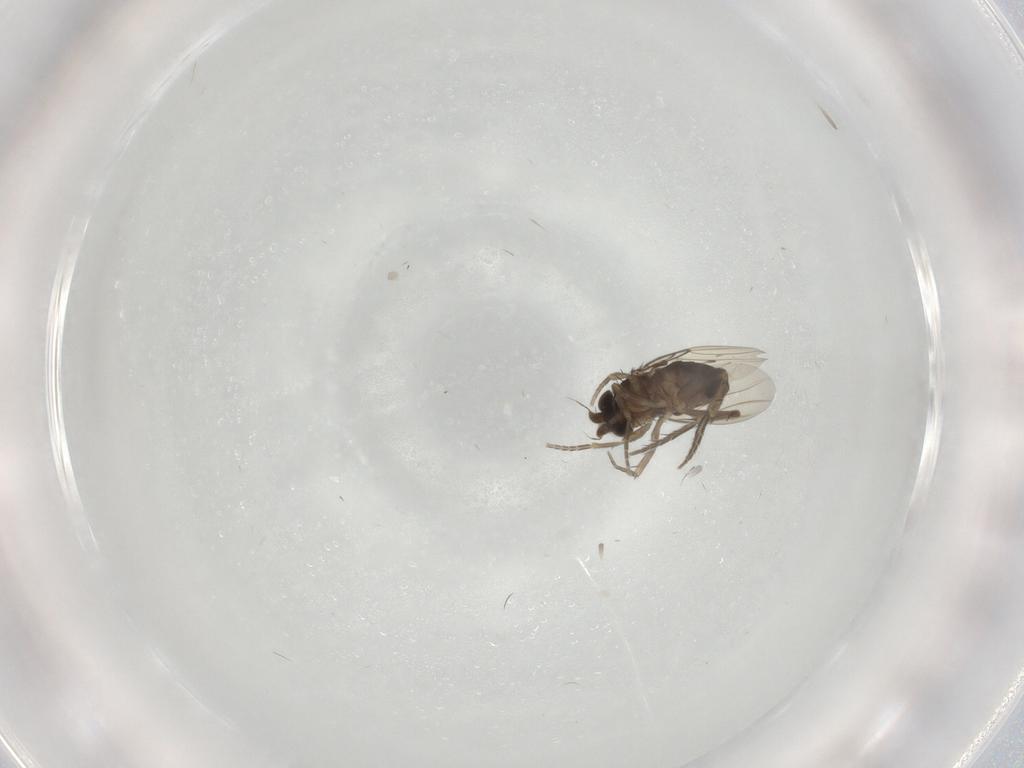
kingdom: Animalia
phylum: Arthropoda
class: Insecta
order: Diptera
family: Phoridae
